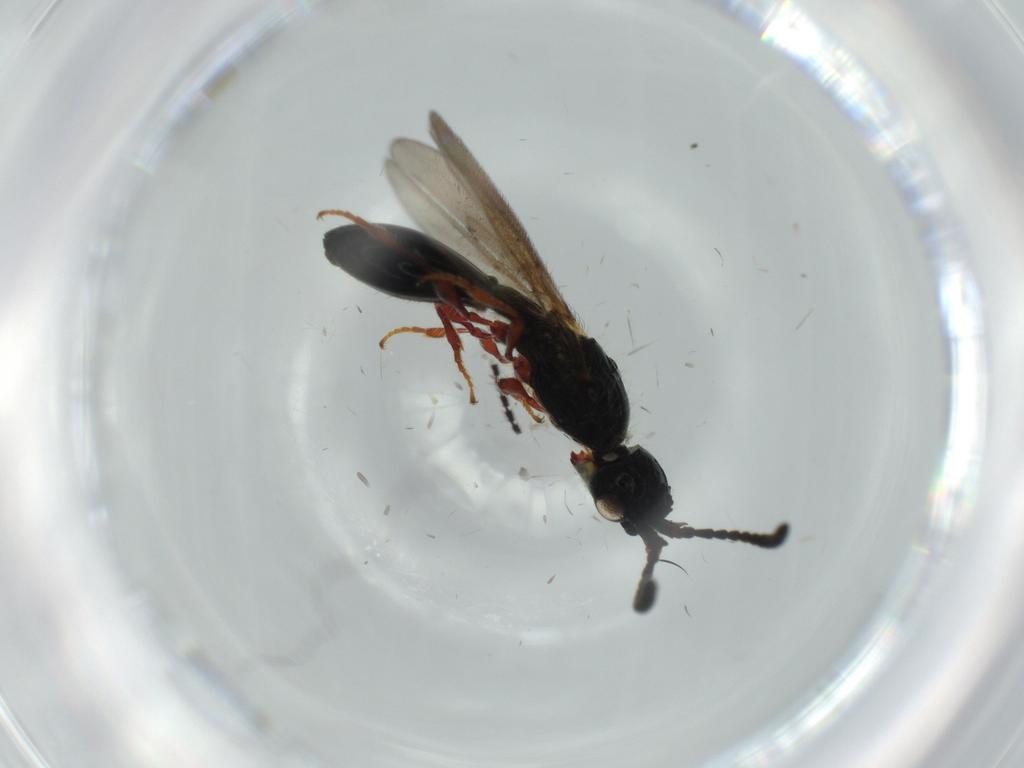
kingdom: Animalia
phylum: Arthropoda
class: Insecta
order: Hymenoptera
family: Diapriidae
